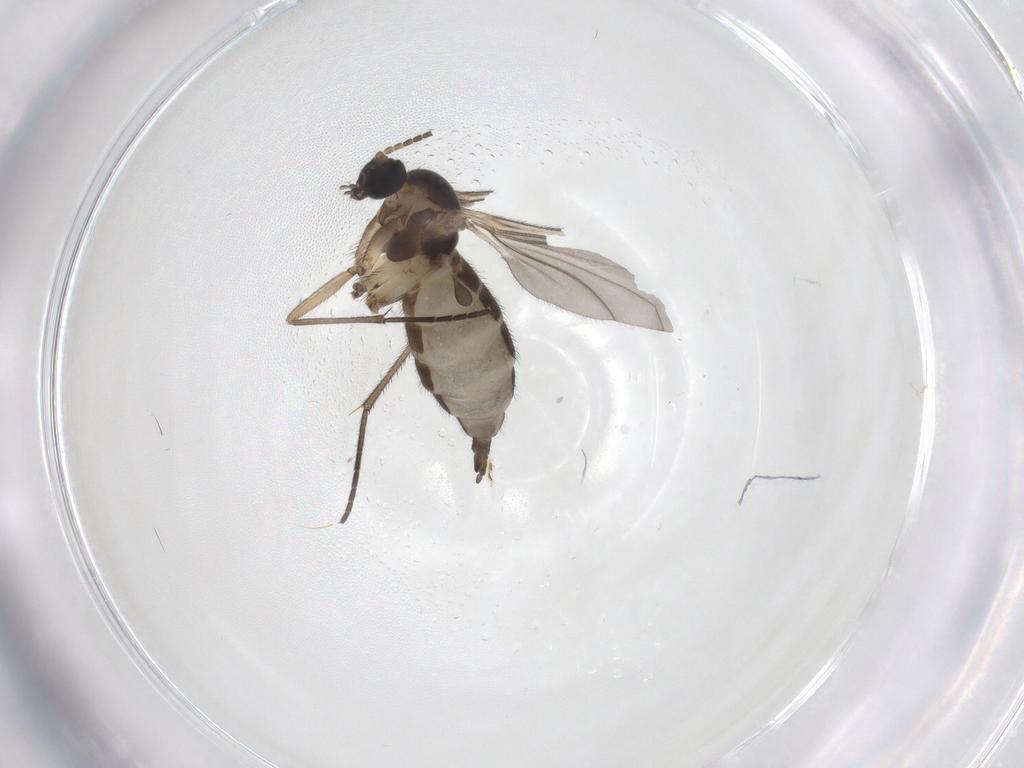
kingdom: Animalia
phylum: Arthropoda
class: Insecta
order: Diptera
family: Sciaridae
